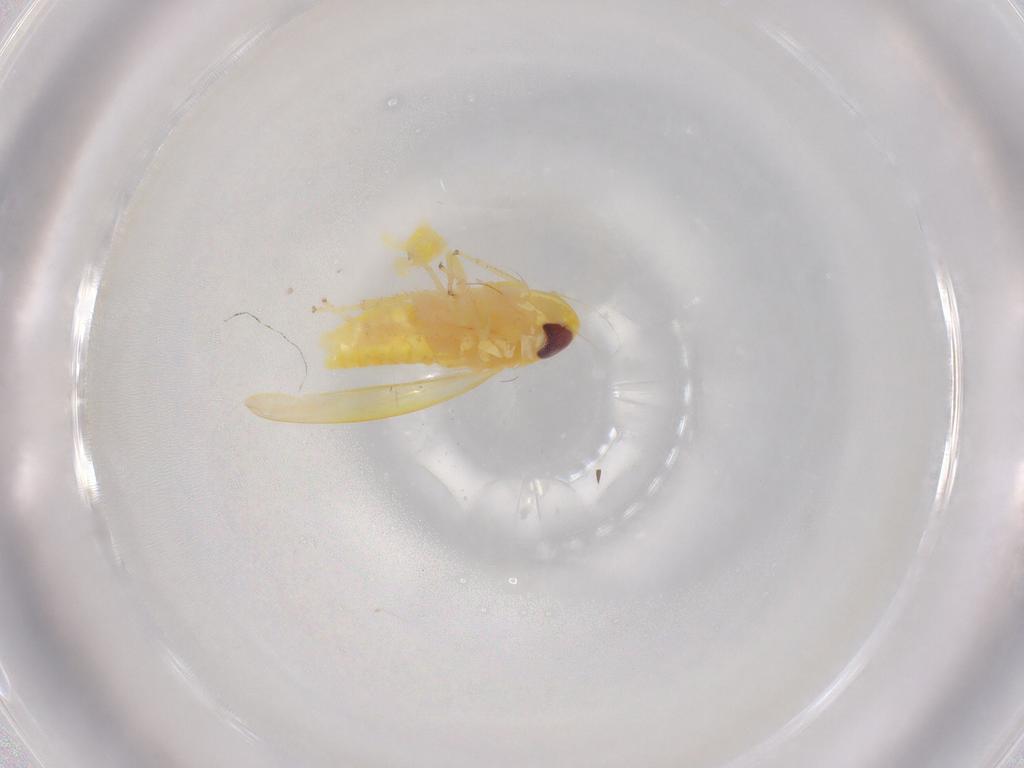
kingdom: Animalia
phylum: Arthropoda
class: Insecta
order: Hemiptera
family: Cicadellidae
